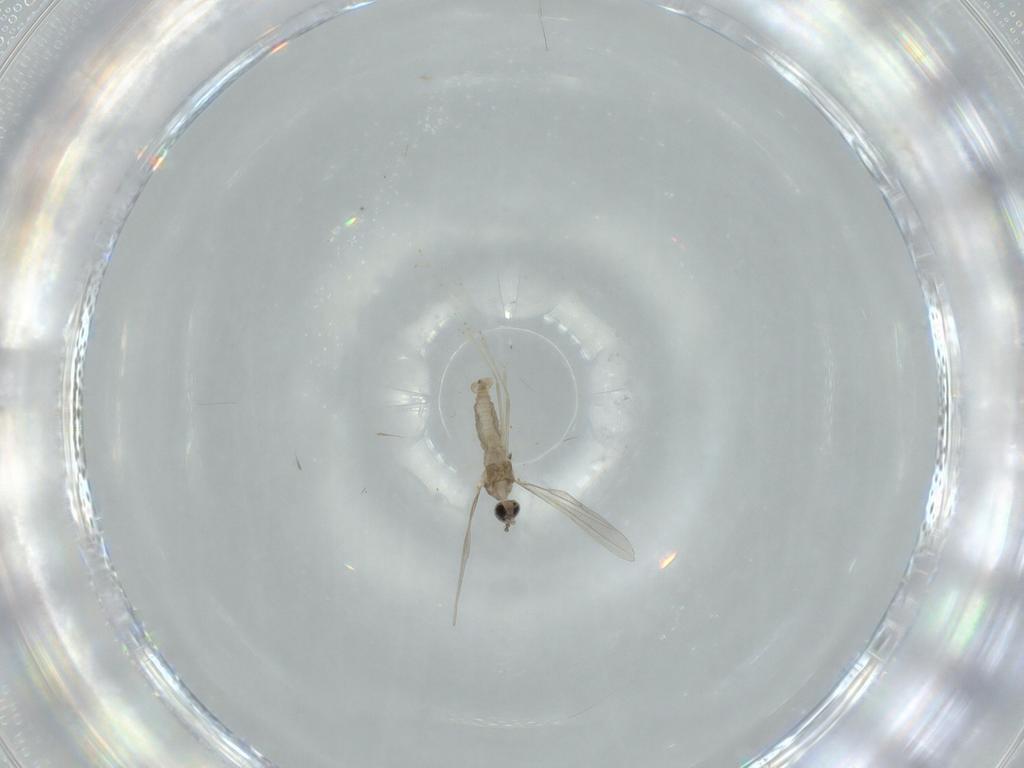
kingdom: Animalia
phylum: Arthropoda
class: Insecta
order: Diptera
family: Cecidomyiidae
